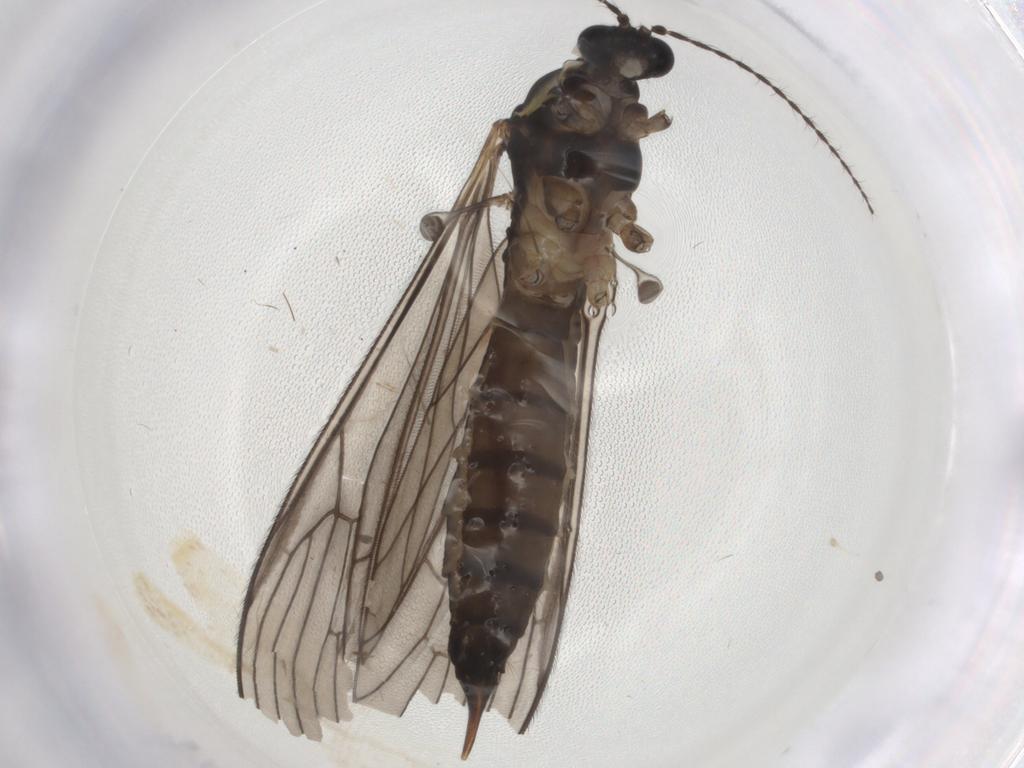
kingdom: Animalia
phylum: Arthropoda
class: Insecta
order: Diptera
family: Limoniidae
